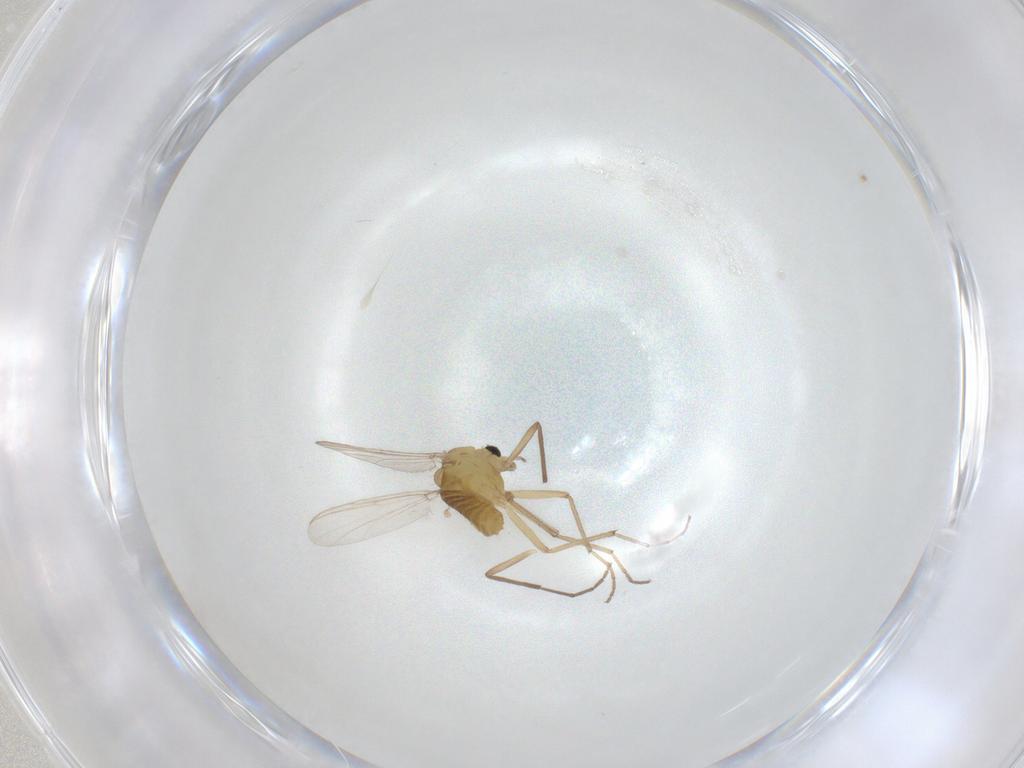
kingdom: Animalia
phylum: Arthropoda
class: Insecta
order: Diptera
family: Chironomidae
